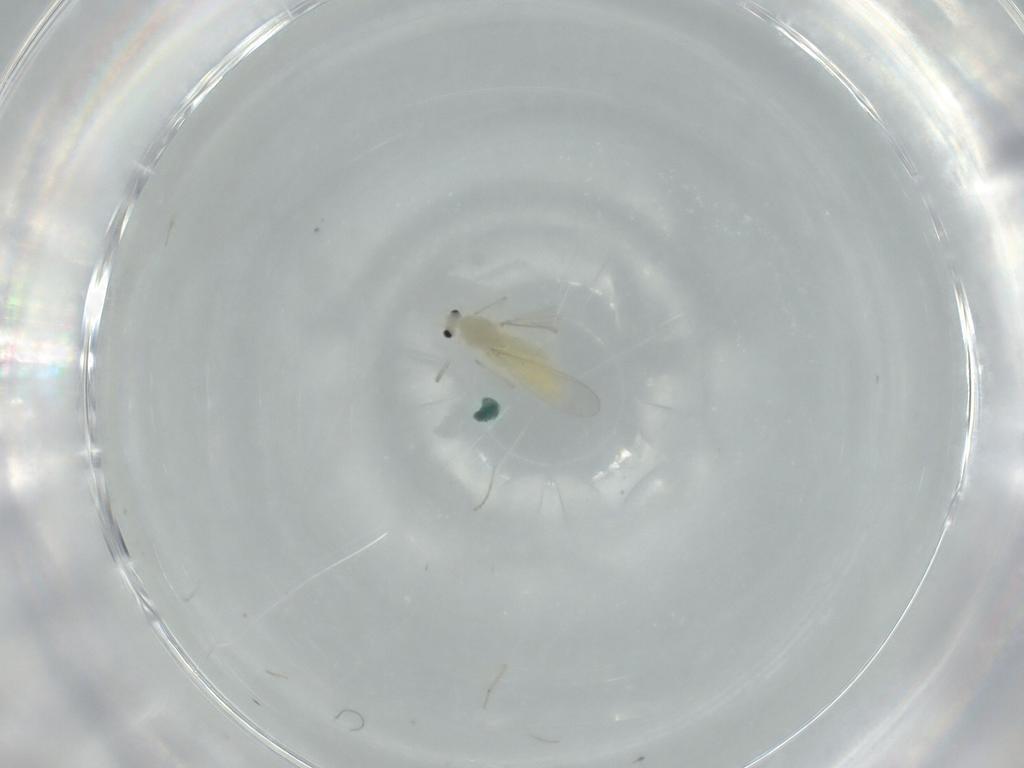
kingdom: Animalia
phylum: Arthropoda
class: Insecta
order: Diptera
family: Chironomidae
